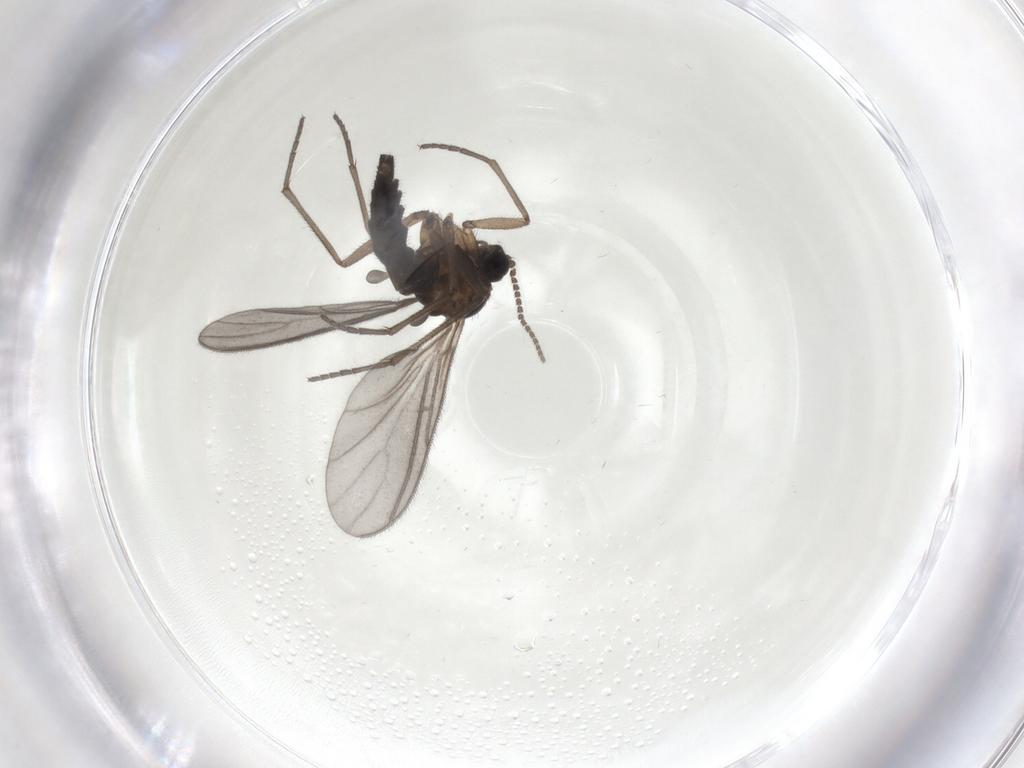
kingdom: Animalia
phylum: Arthropoda
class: Insecta
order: Diptera
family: Sciaridae
